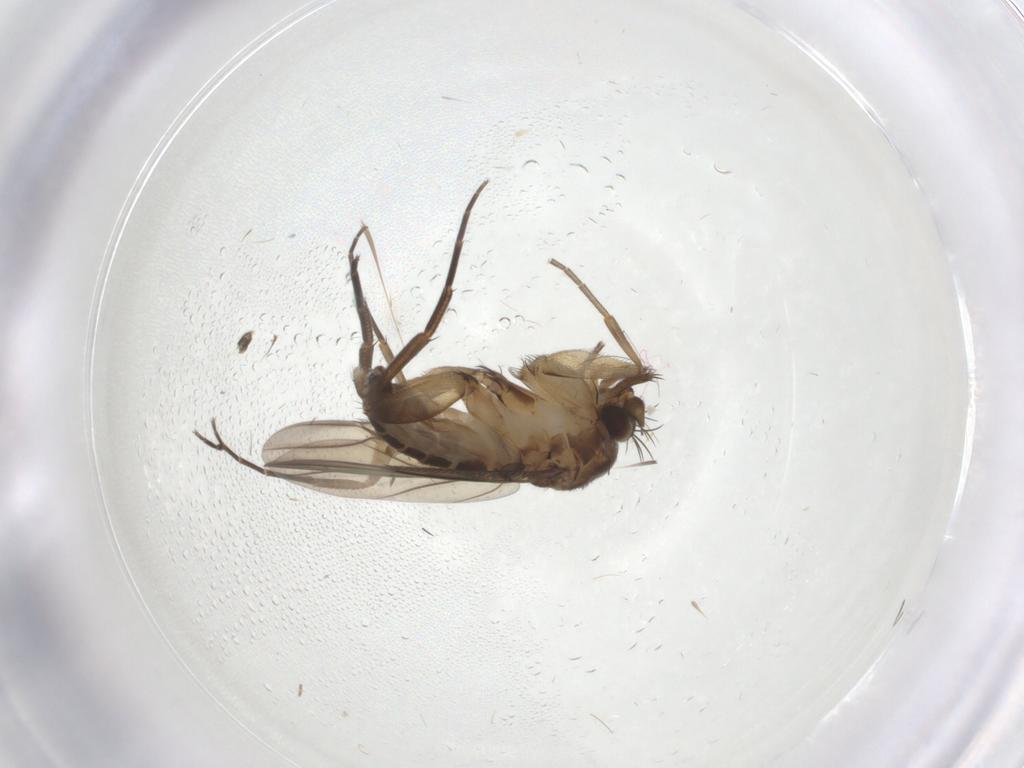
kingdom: Animalia
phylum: Arthropoda
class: Insecta
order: Diptera
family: Phoridae
